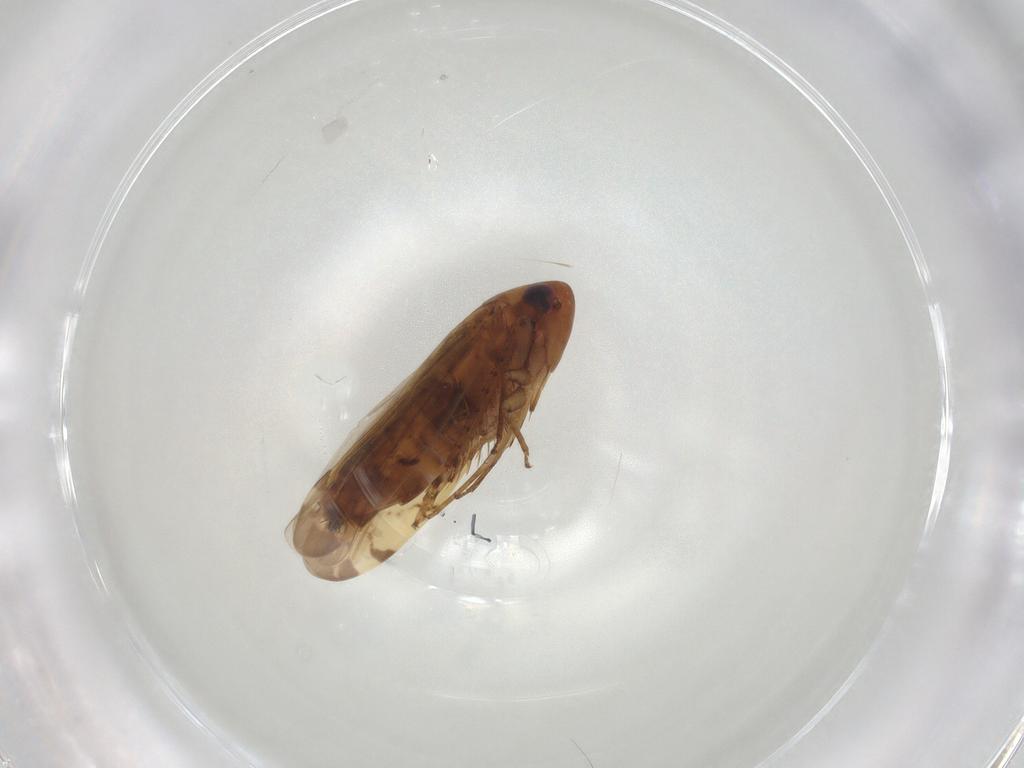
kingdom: Animalia
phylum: Arthropoda
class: Insecta
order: Hemiptera
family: Cicadellidae
